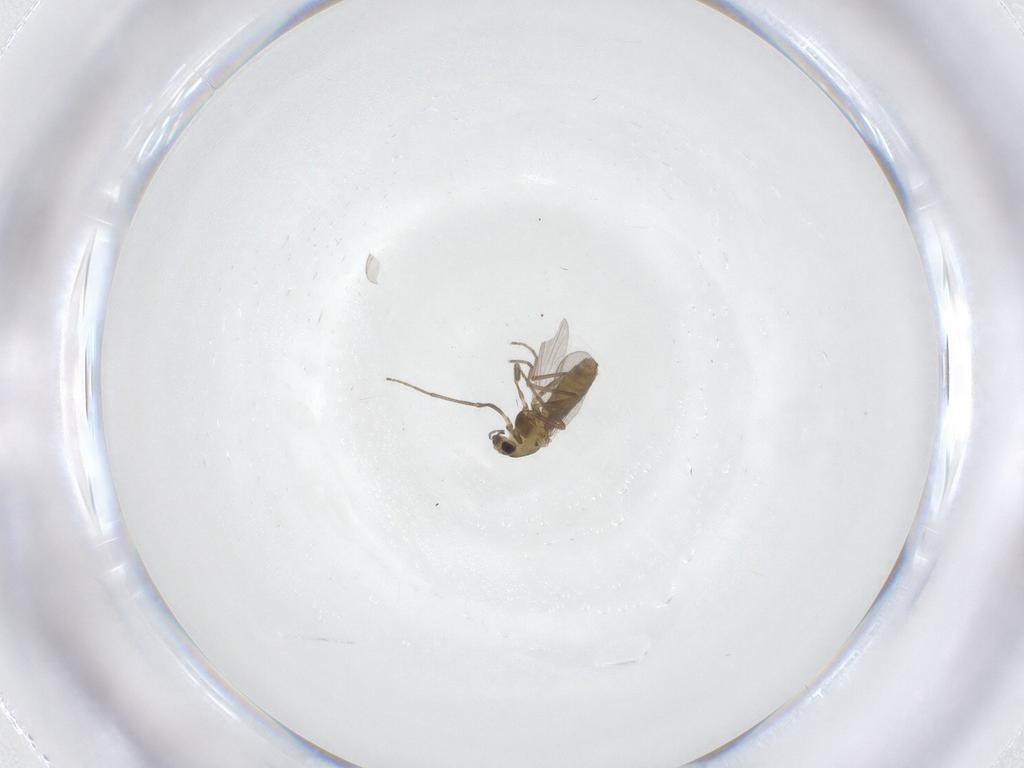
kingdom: Animalia
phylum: Arthropoda
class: Insecta
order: Diptera
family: Chironomidae
